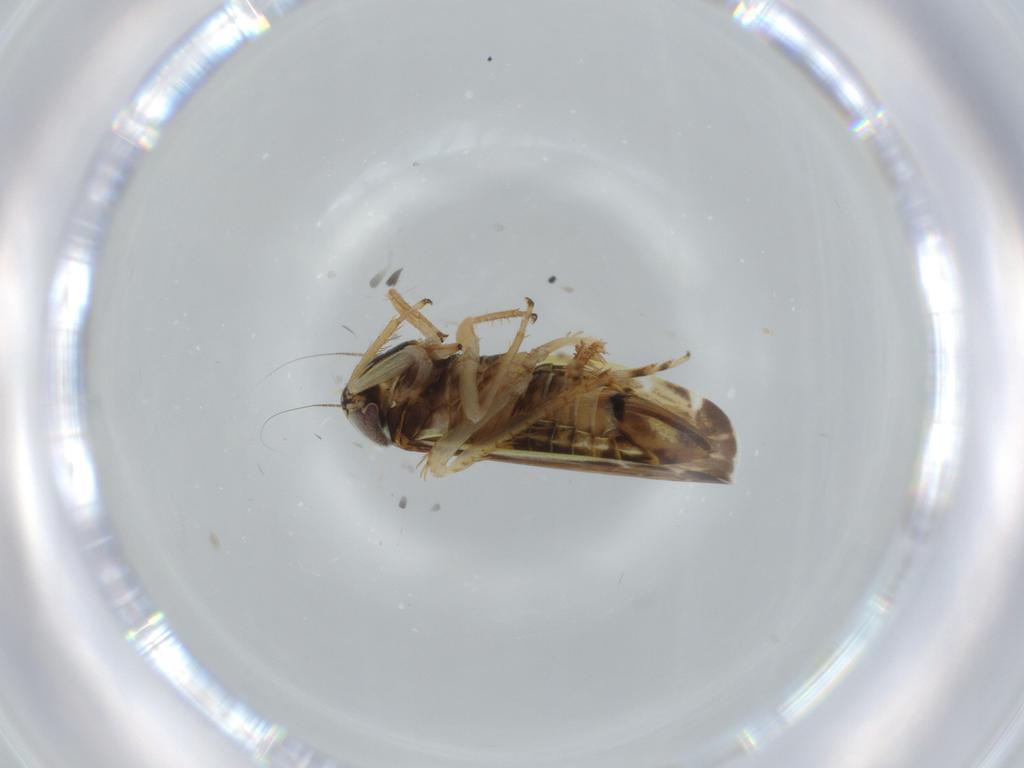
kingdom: Animalia
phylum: Arthropoda
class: Insecta
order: Hemiptera
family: Cicadellidae
